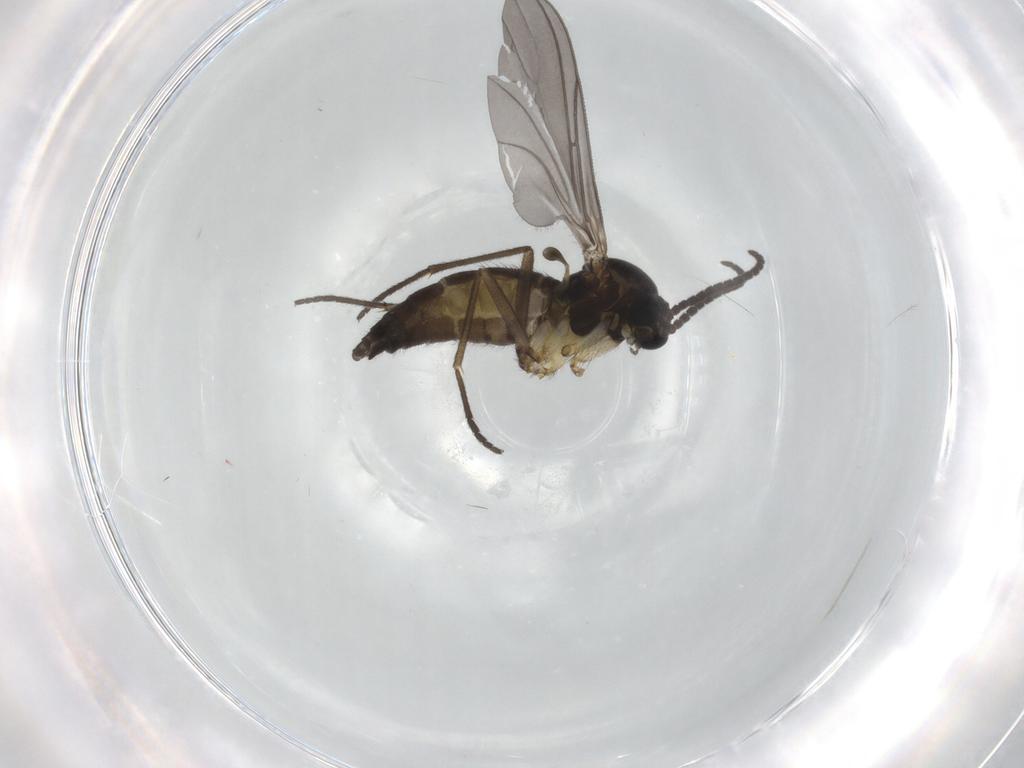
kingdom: Animalia
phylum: Arthropoda
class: Insecta
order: Diptera
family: Sciaridae
